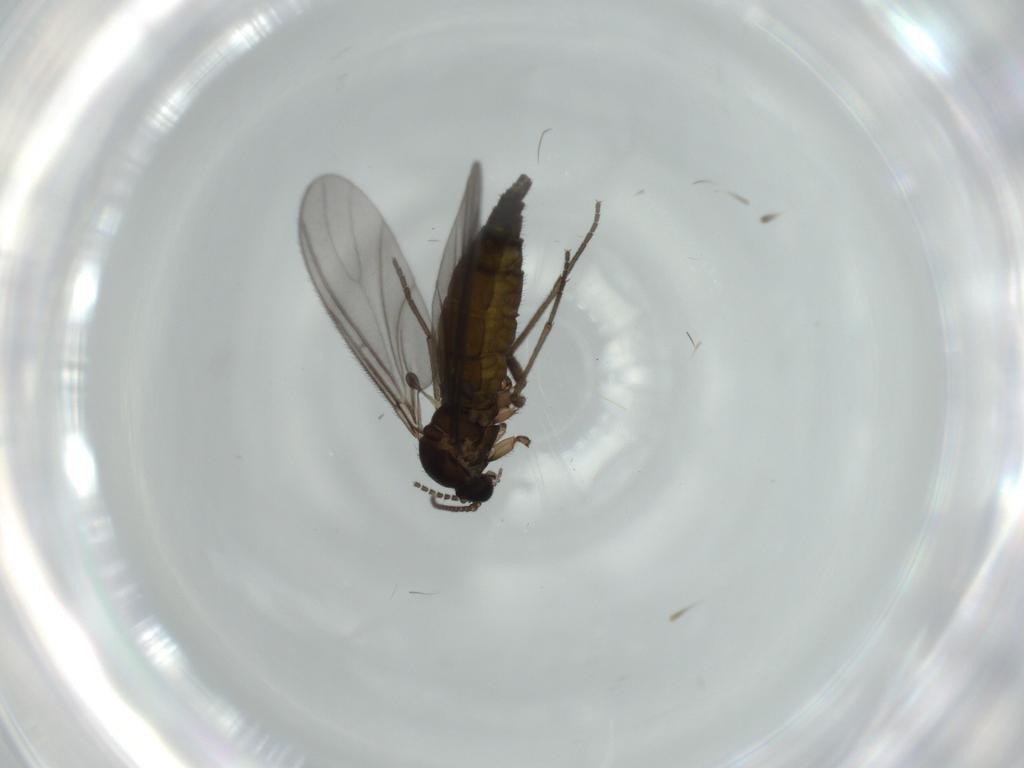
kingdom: Animalia
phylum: Arthropoda
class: Insecta
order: Diptera
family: Sciaridae
